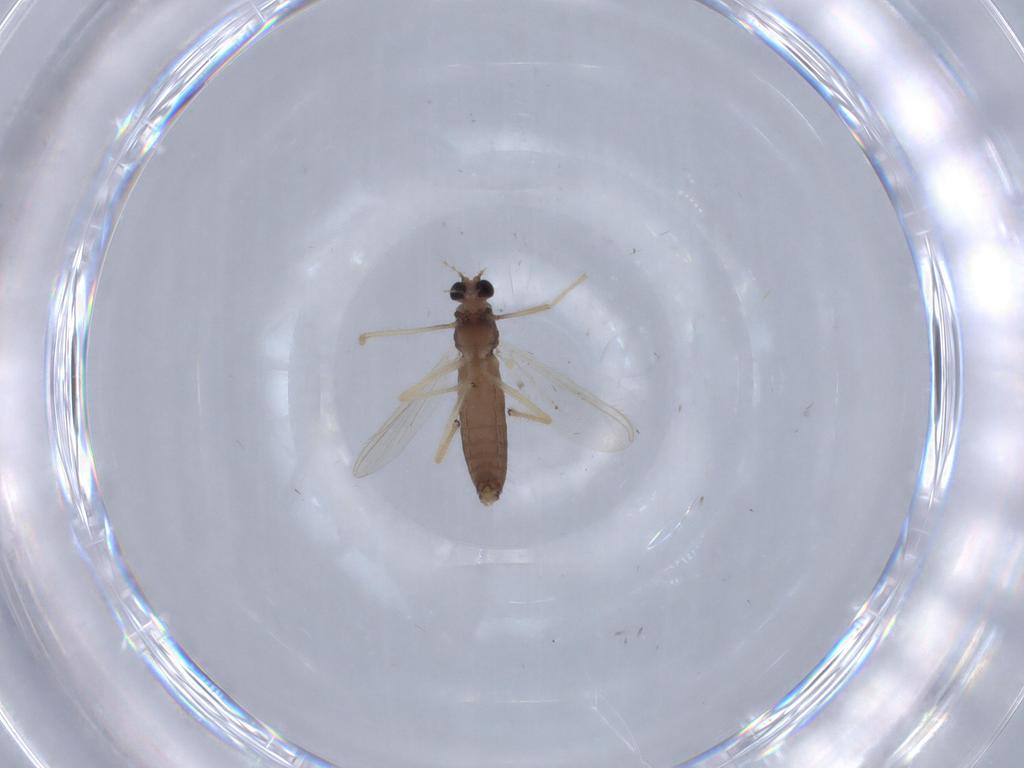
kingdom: Animalia
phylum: Arthropoda
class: Insecta
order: Diptera
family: Chironomidae
